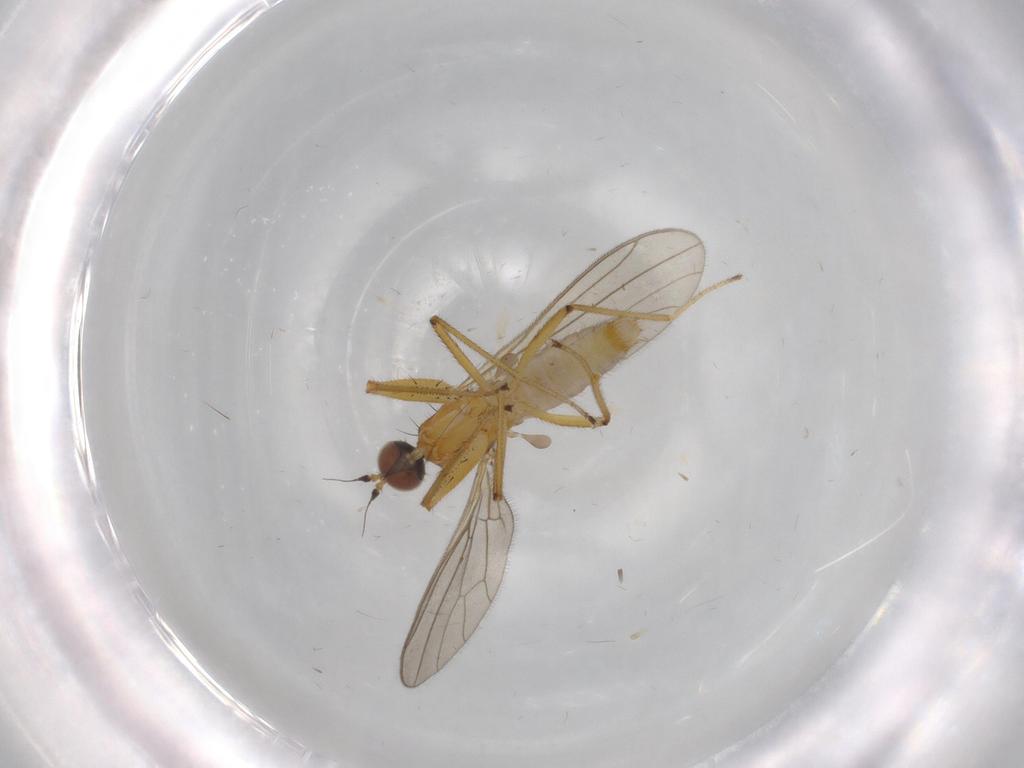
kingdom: Animalia
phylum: Arthropoda
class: Insecta
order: Diptera
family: Empididae
